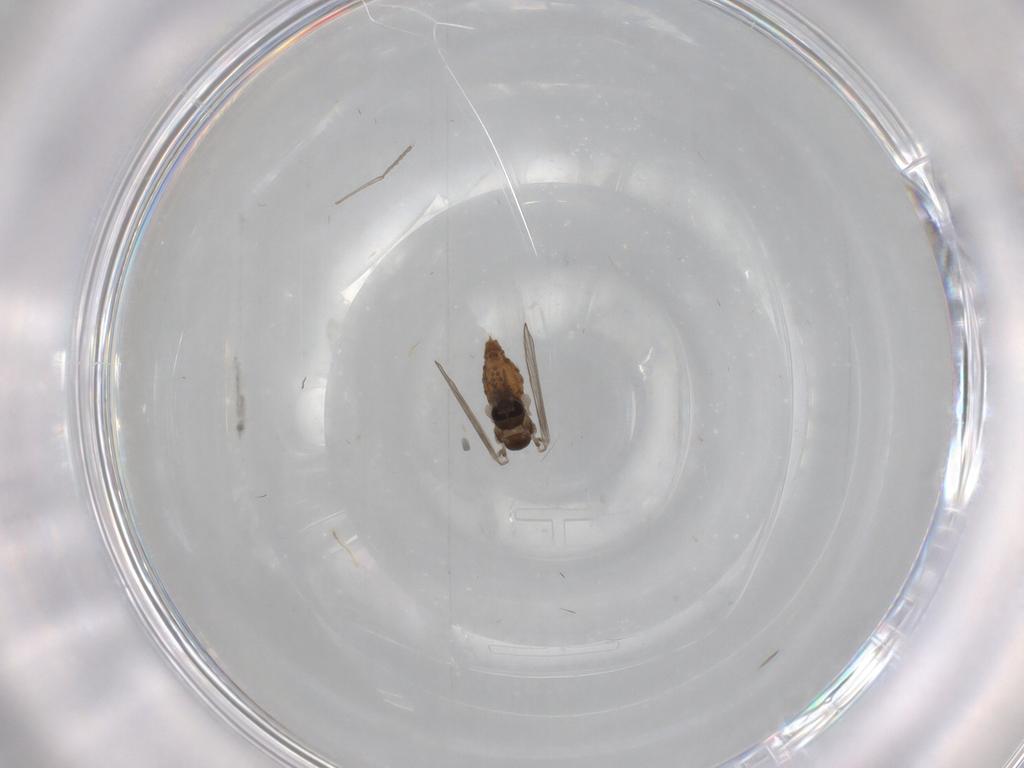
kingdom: Animalia
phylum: Arthropoda
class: Insecta
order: Diptera
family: Psychodidae
